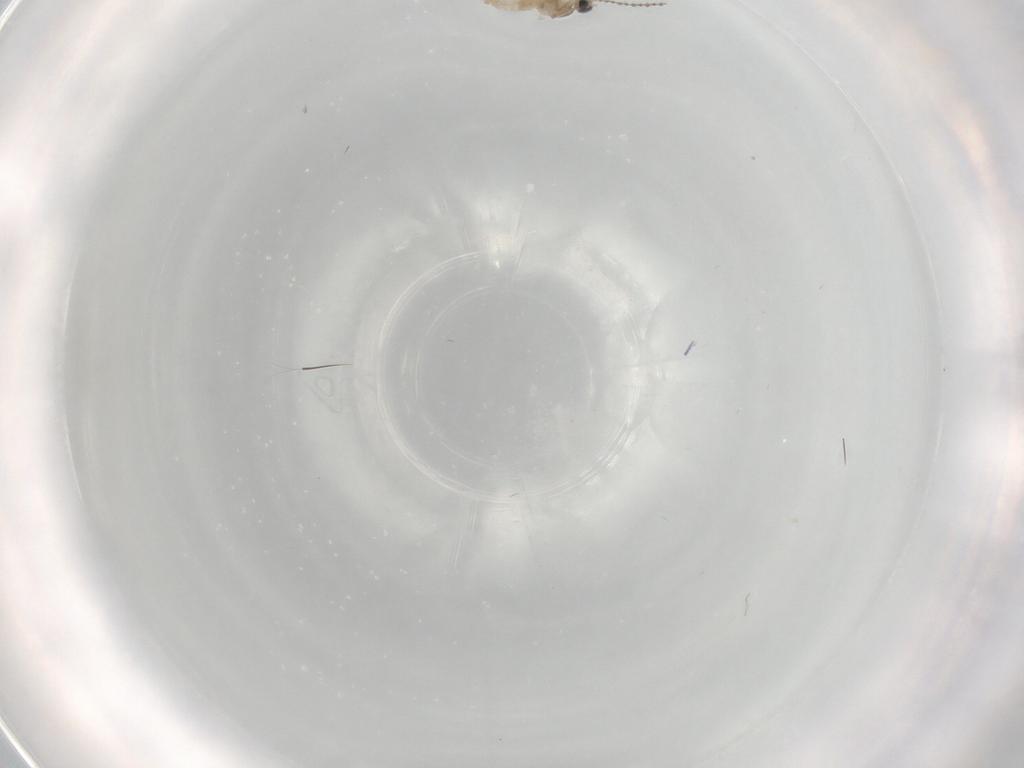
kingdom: Animalia
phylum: Arthropoda
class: Insecta
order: Diptera
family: Cecidomyiidae
